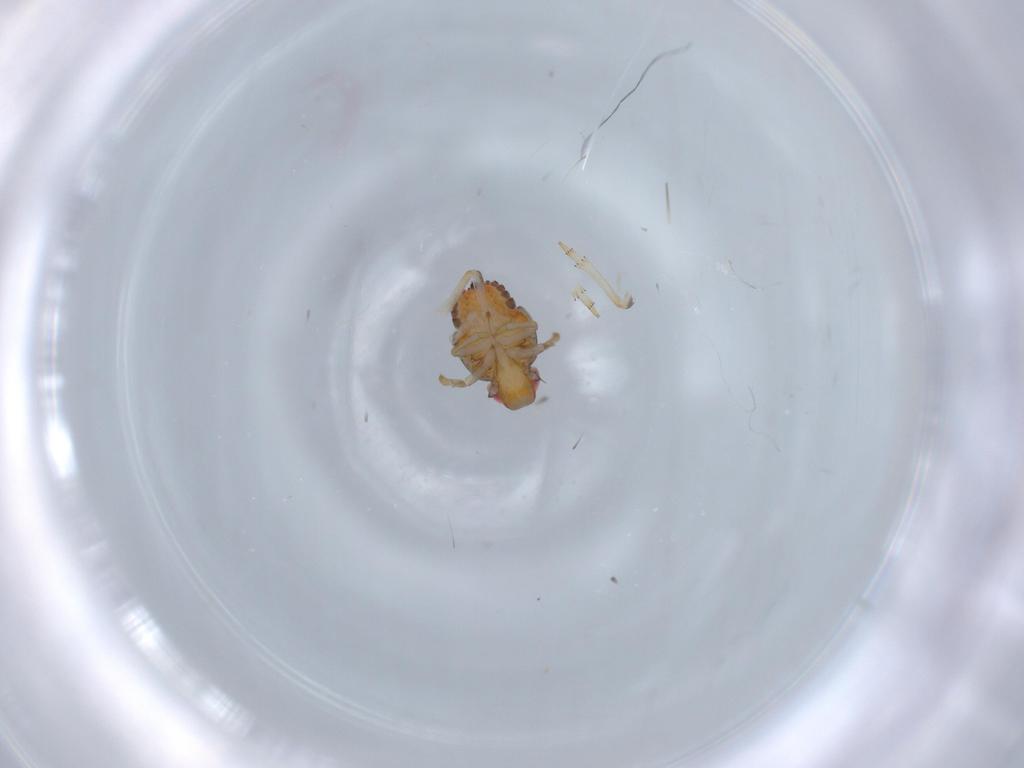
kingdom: Animalia
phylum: Arthropoda
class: Insecta
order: Hemiptera
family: Issidae
